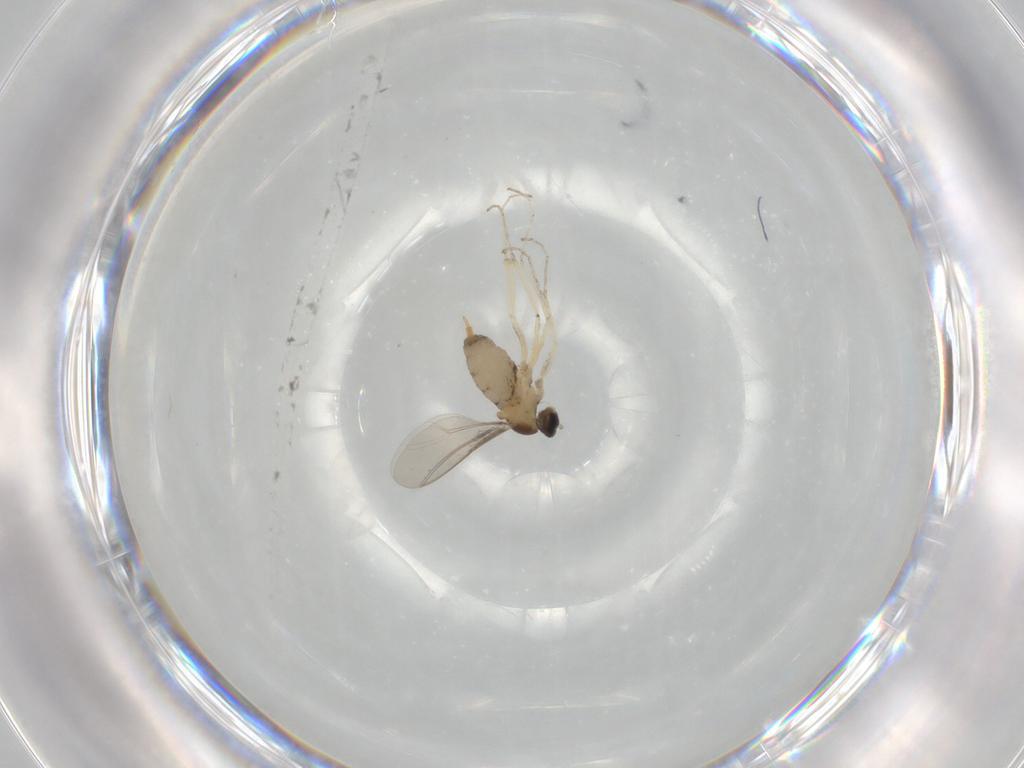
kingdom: Animalia
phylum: Arthropoda
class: Insecta
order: Diptera
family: Cecidomyiidae
